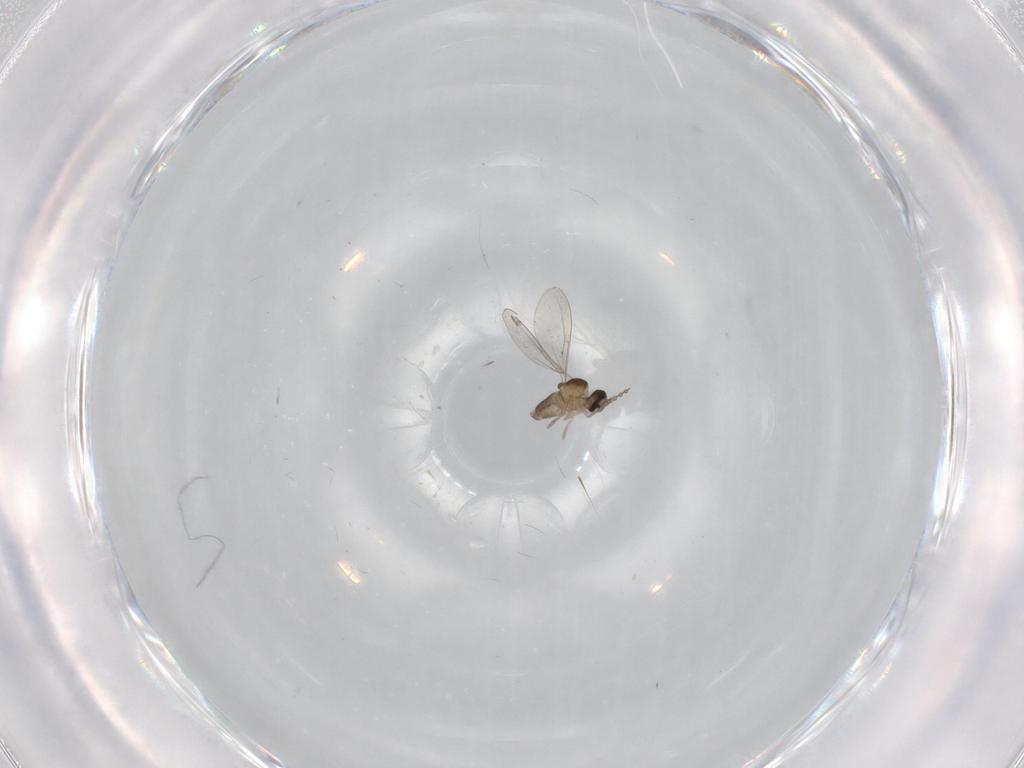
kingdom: Animalia
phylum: Arthropoda
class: Insecta
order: Diptera
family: Cecidomyiidae
